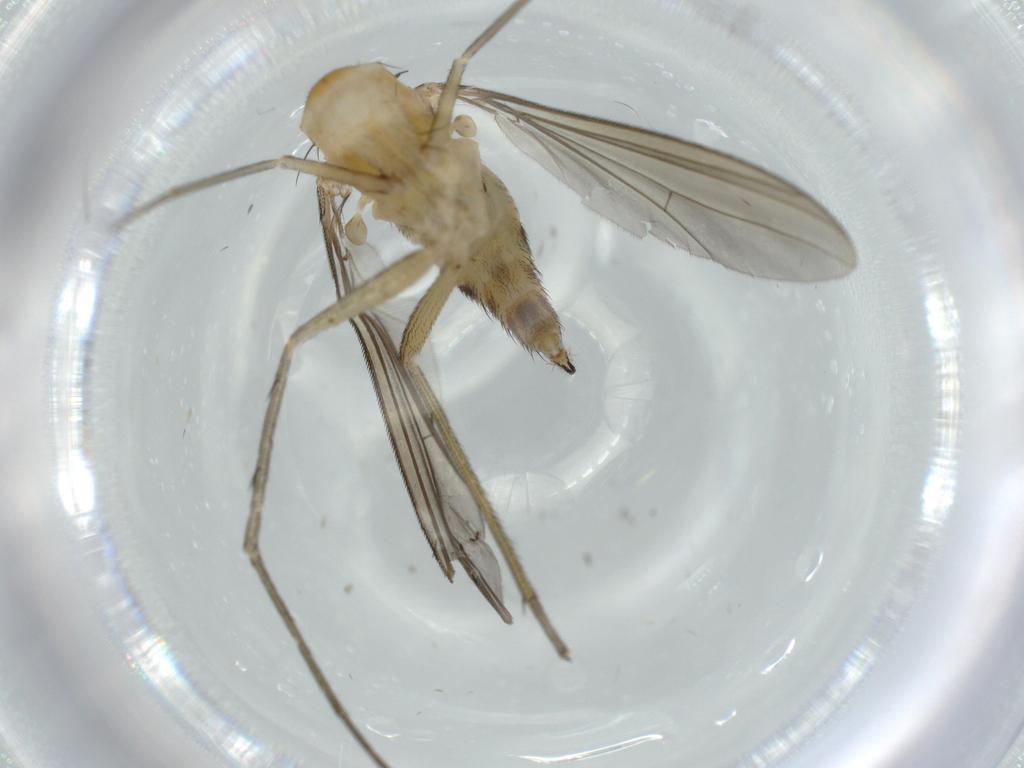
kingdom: Animalia
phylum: Arthropoda
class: Insecta
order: Diptera
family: Dolichopodidae
